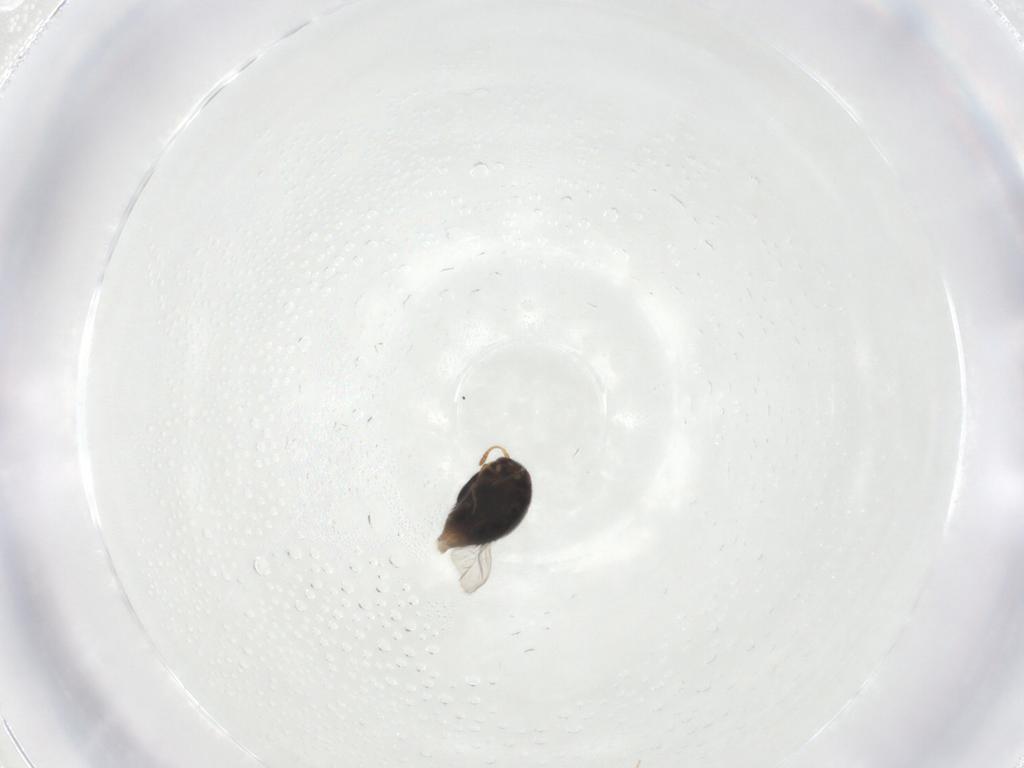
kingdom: Animalia
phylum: Arthropoda
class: Insecta
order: Coleoptera
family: Staphylinidae
